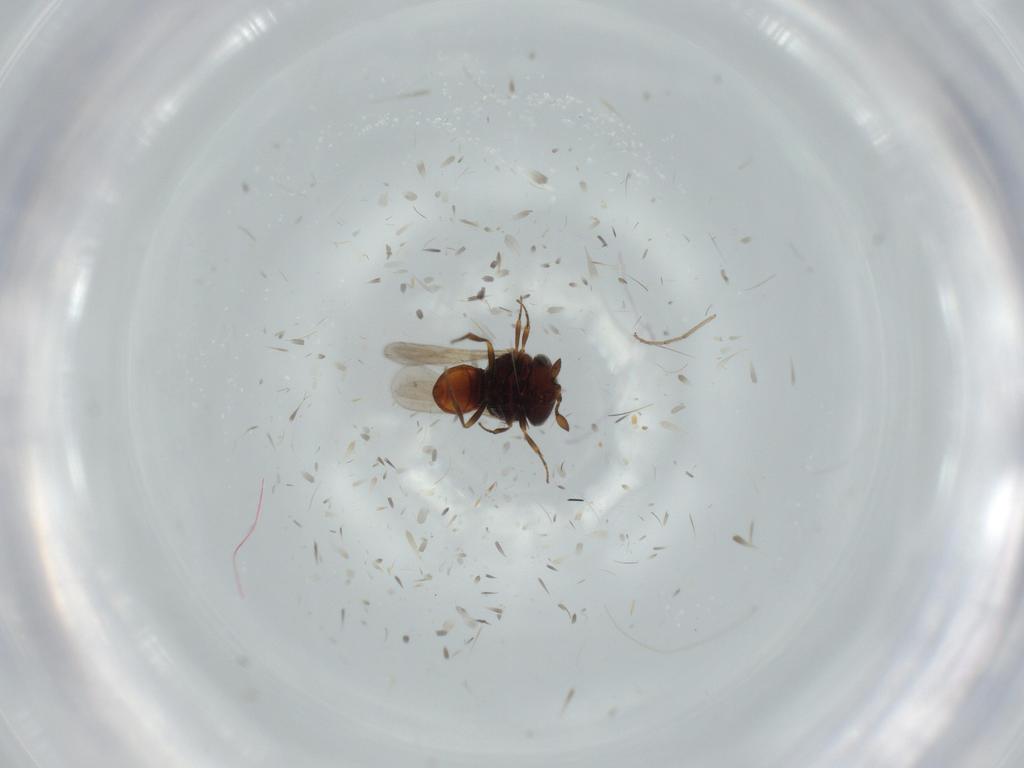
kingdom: Animalia
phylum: Arthropoda
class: Insecta
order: Hymenoptera
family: Scelionidae
